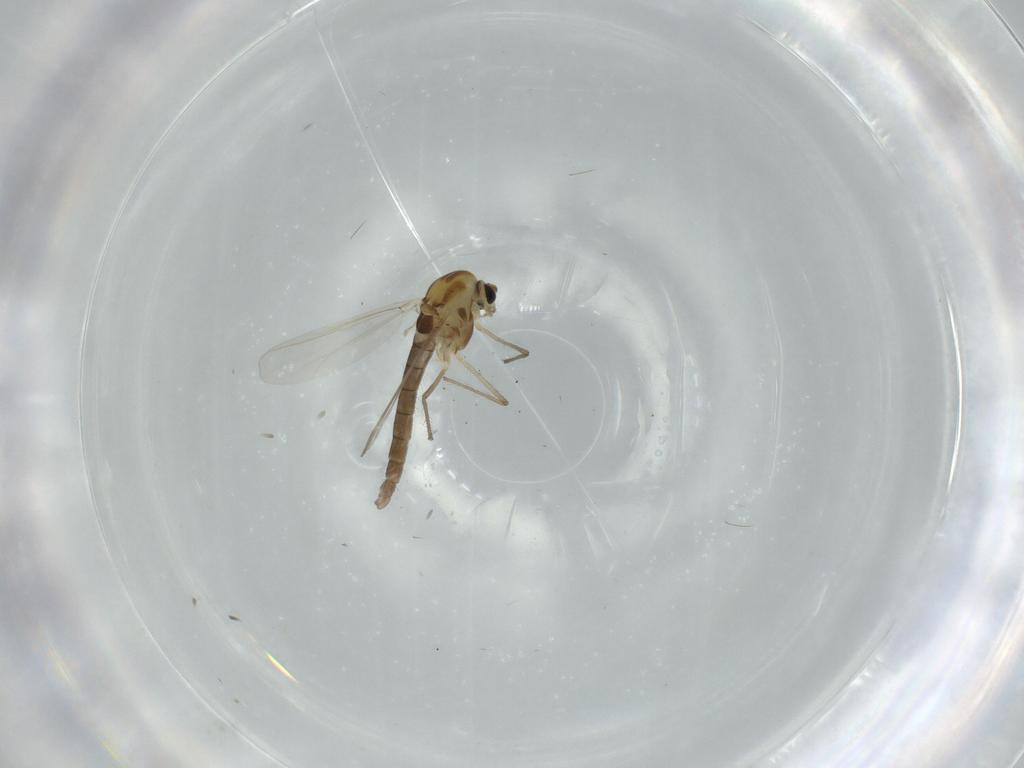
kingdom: Animalia
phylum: Arthropoda
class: Insecta
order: Diptera
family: Chironomidae
